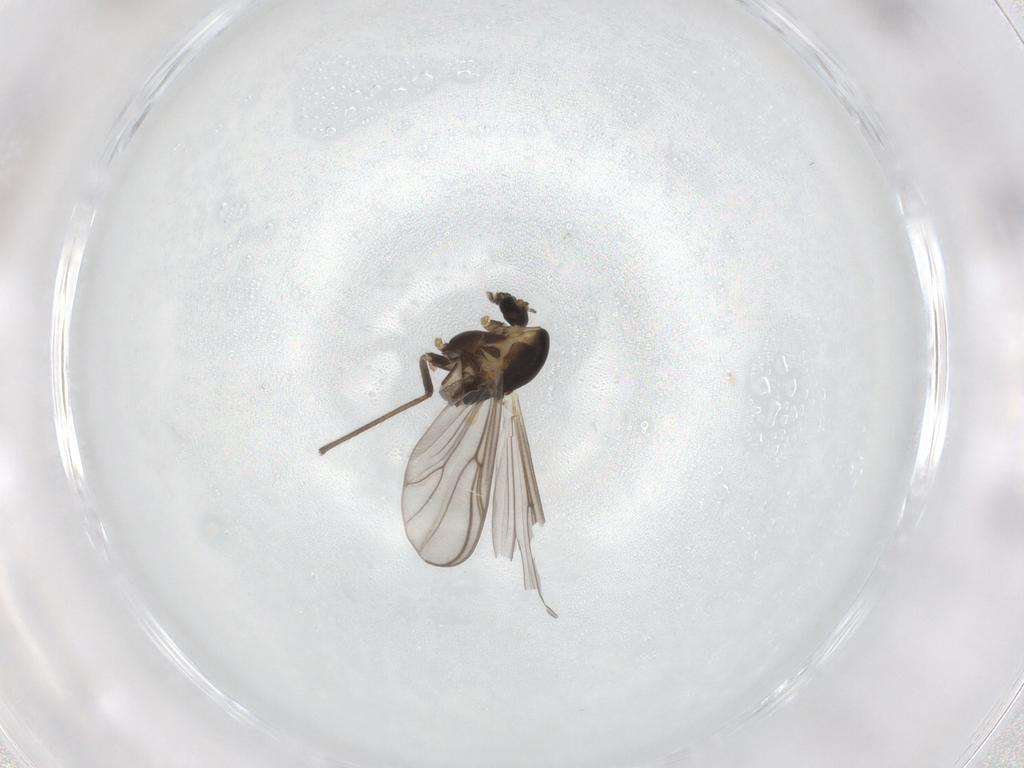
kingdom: Animalia
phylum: Arthropoda
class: Insecta
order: Diptera
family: Chironomidae
